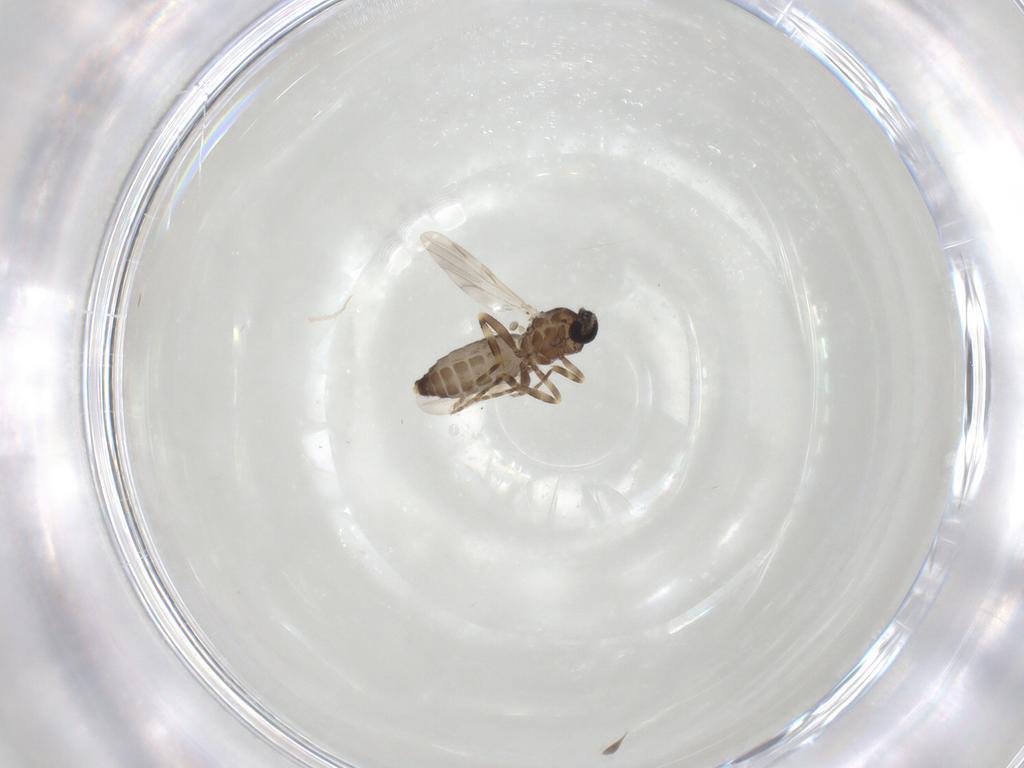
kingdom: Animalia
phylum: Arthropoda
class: Insecta
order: Diptera
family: Ceratopogonidae
